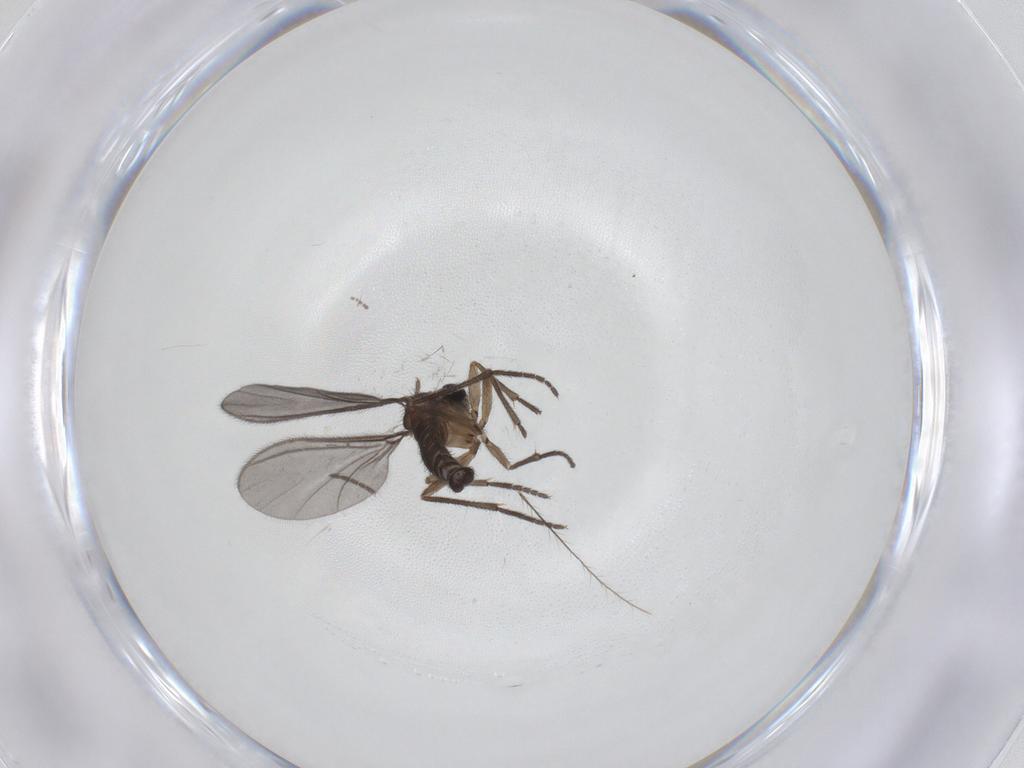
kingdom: Animalia
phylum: Arthropoda
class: Insecta
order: Diptera
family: Sciaridae
